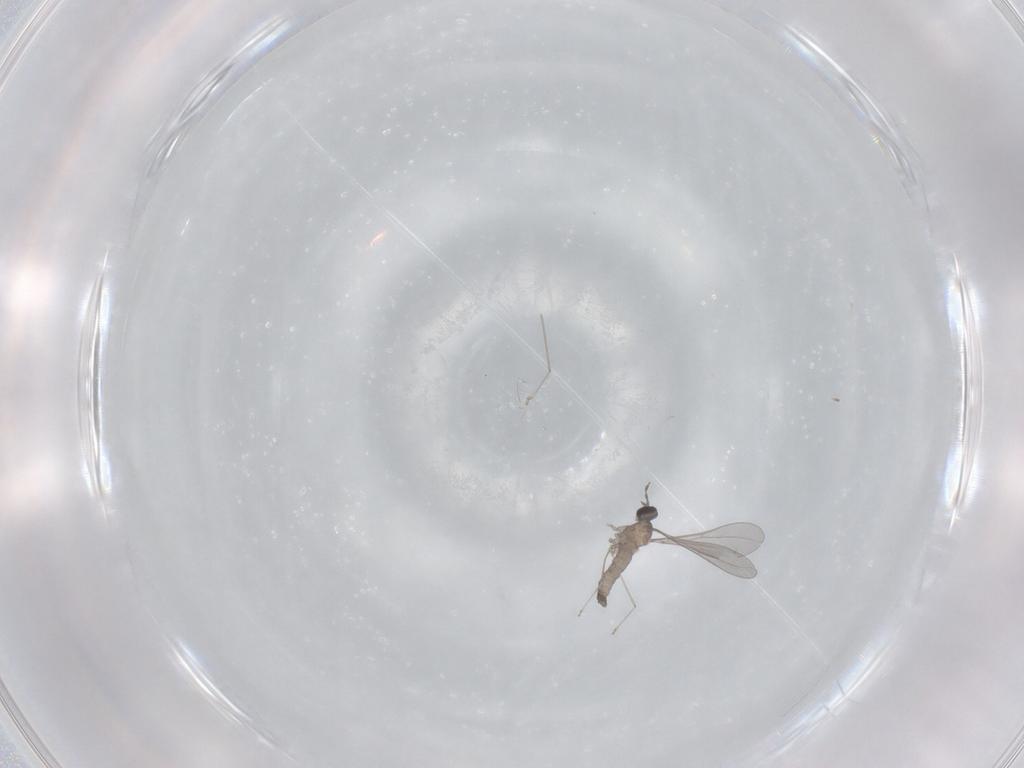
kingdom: Animalia
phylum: Arthropoda
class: Insecta
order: Diptera
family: Cecidomyiidae
